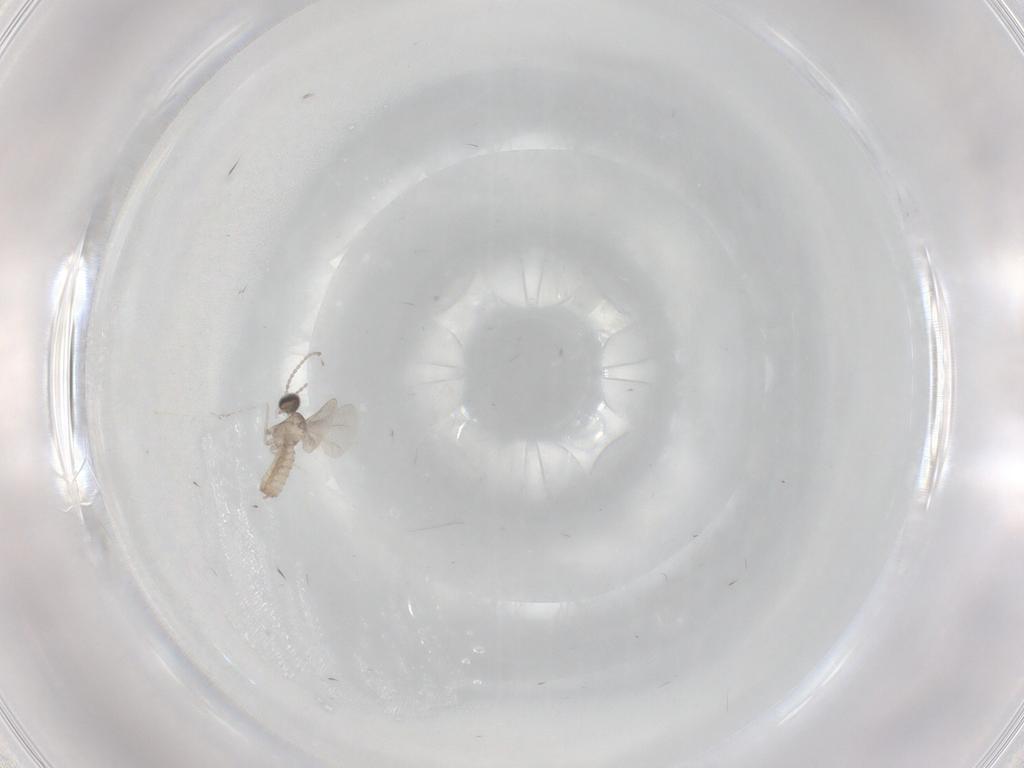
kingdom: Animalia
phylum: Arthropoda
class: Insecta
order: Diptera
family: Cecidomyiidae
